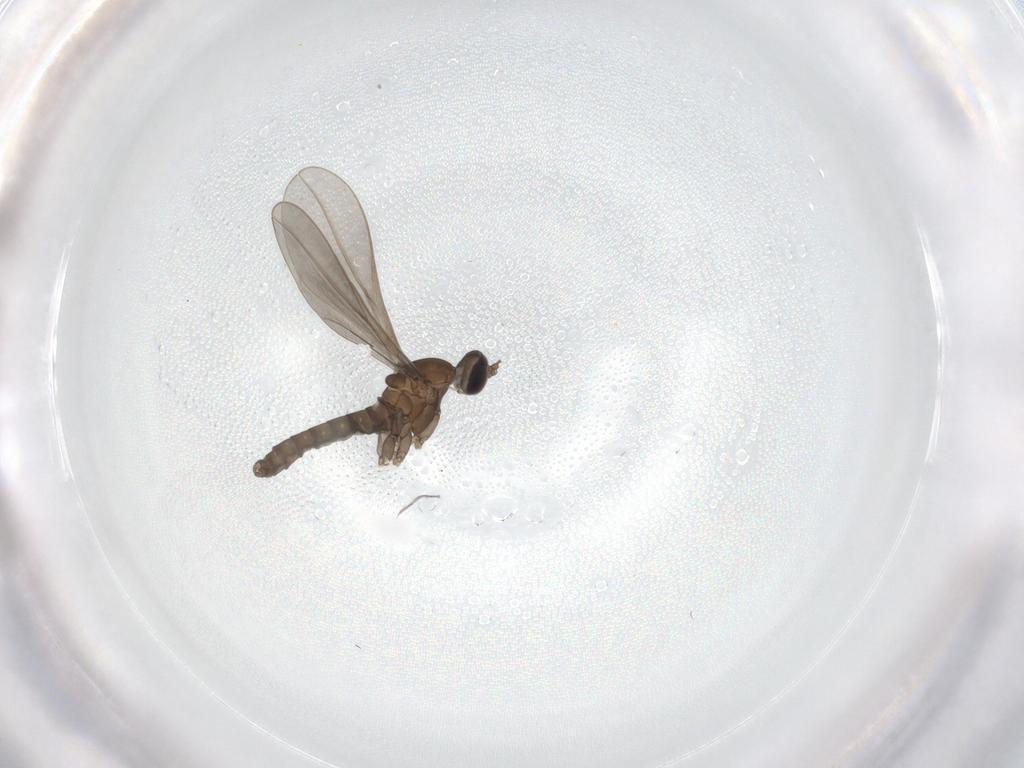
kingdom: Animalia
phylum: Arthropoda
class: Insecta
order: Diptera
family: Cecidomyiidae
